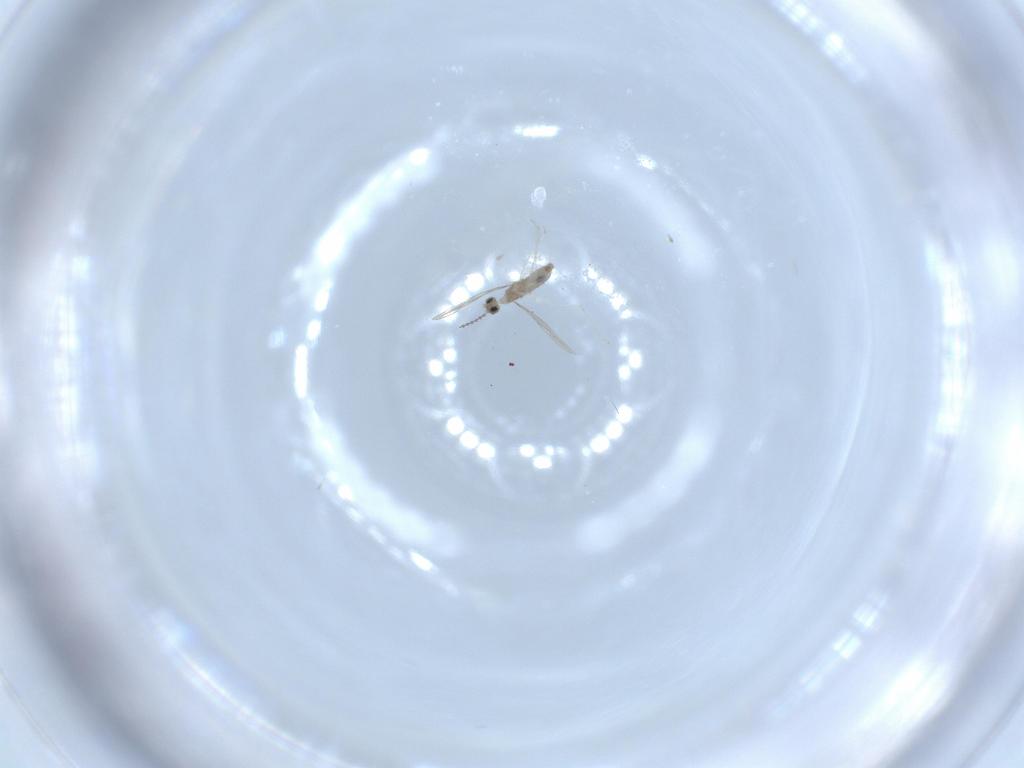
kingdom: Animalia
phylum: Arthropoda
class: Insecta
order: Diptera
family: Cecidomyiidae
